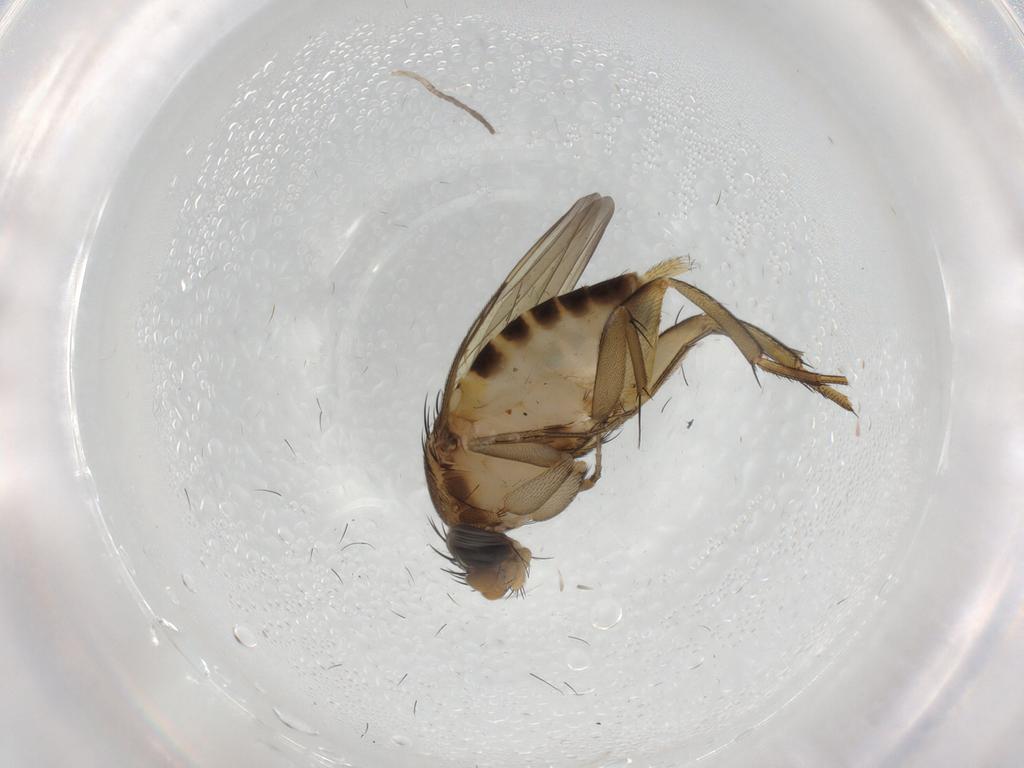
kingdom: Animalia
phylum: Arthropoda
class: Insecta
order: Diptera
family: Phoridae
